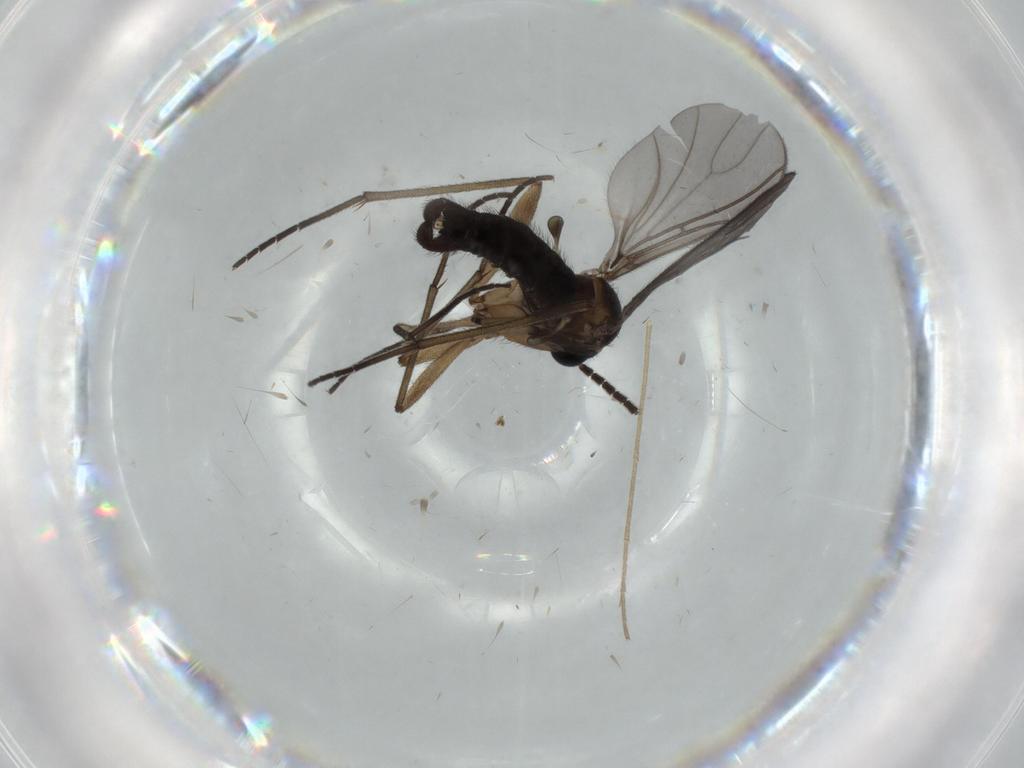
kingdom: Animalia
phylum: Arthropoda
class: Insecta
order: Diptera
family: Sciaridae
